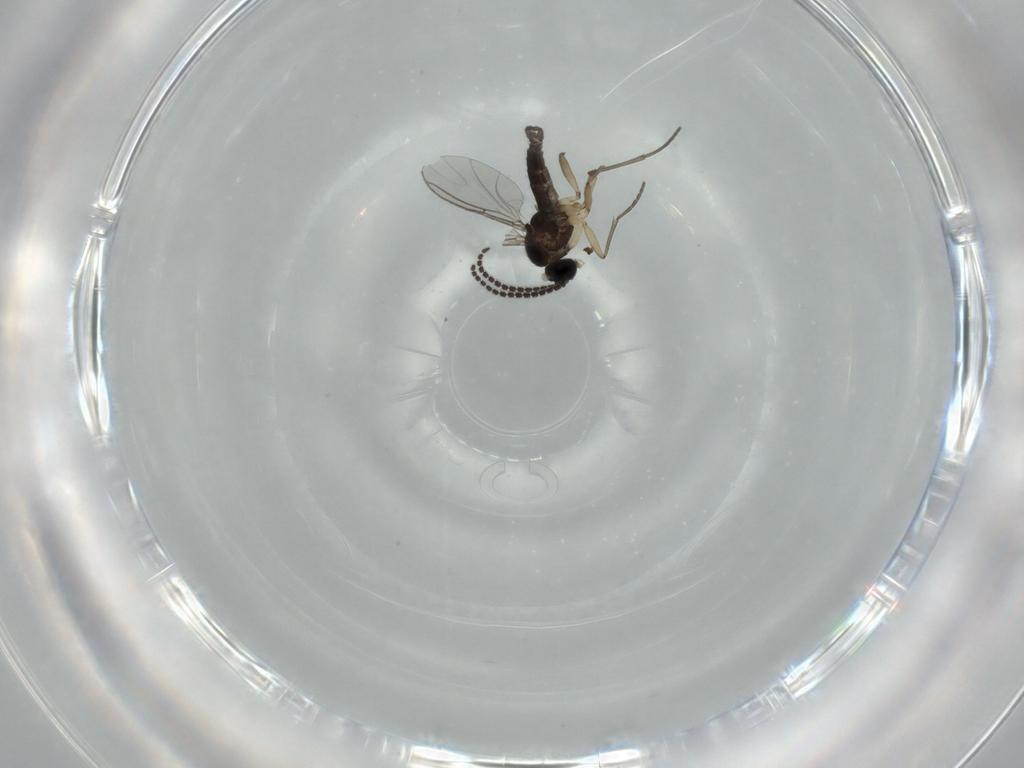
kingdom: Animalia
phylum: Arthropoda
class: Insecta
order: Diptera
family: Sciaridae
